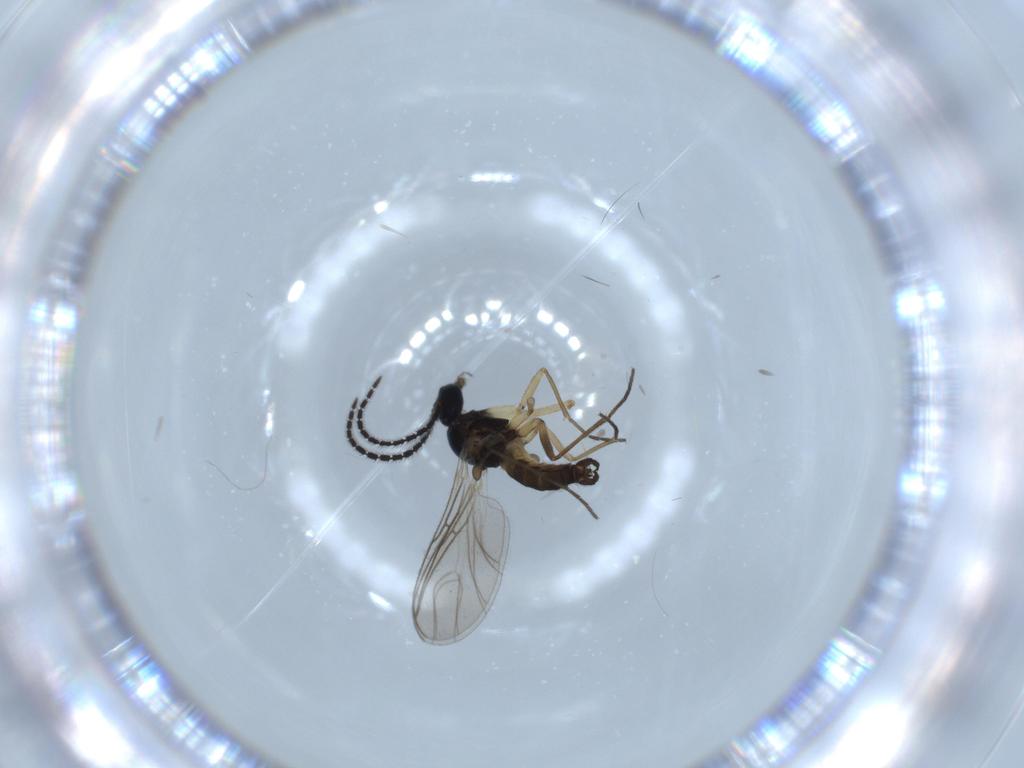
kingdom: Animalia
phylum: Arthropoda
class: Insecta
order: Diptera
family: Sciaridae
